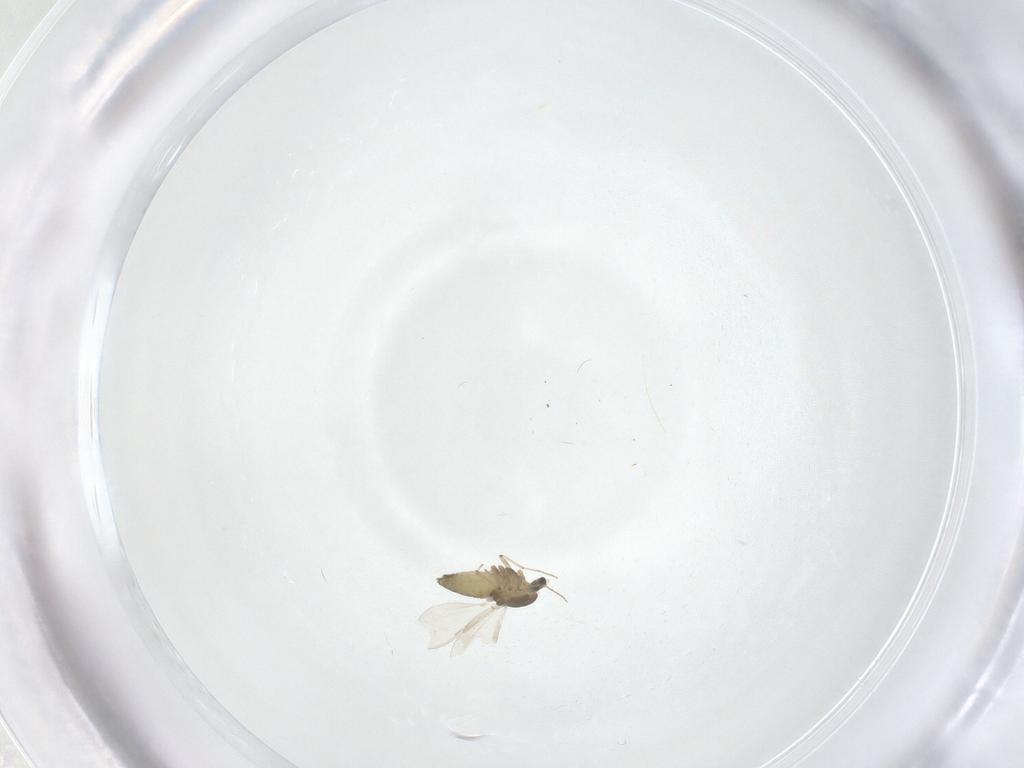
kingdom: Animalia
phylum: Arthropoda
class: Insecta
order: Diptera
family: Chironomidae
